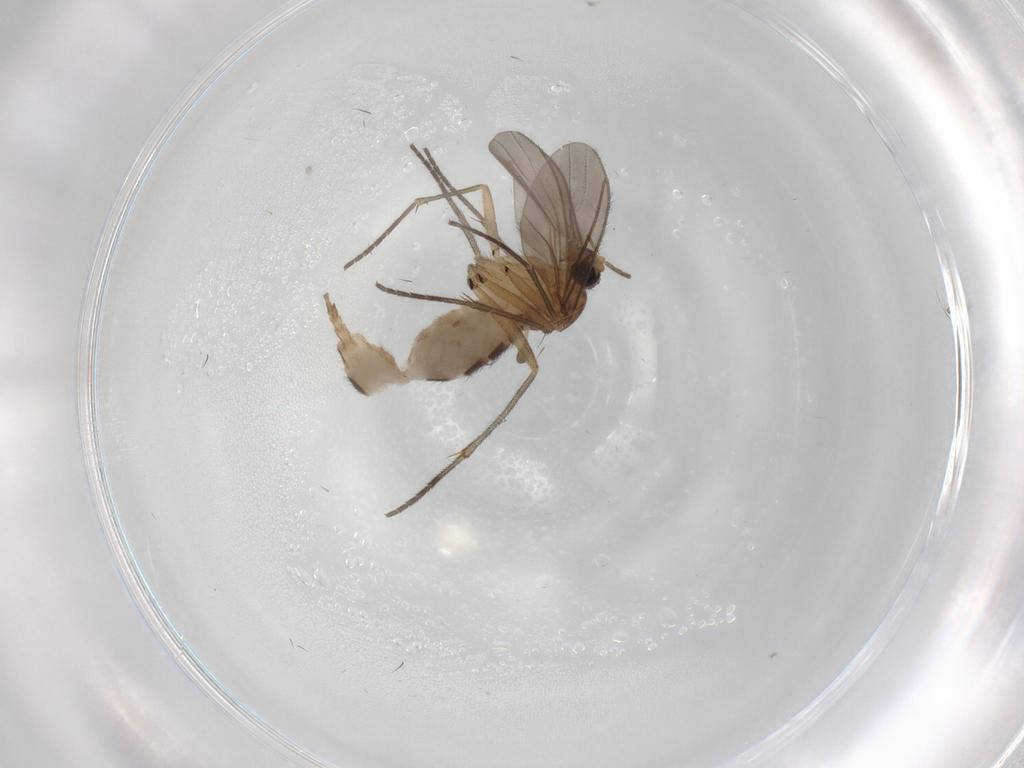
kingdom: Animalia
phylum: Arthropoda
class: Insecta
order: Diptera
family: Sciaridae
